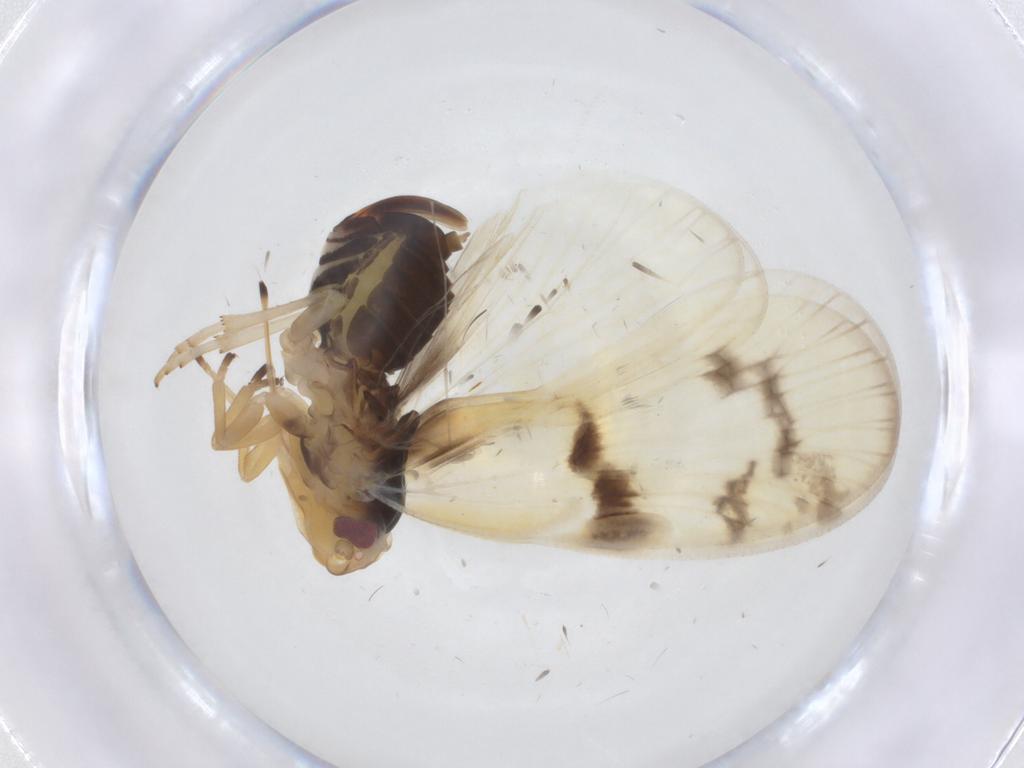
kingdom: Animalia
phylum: Arthropoda
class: Insecta
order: Hemiptera
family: Cixiidae
